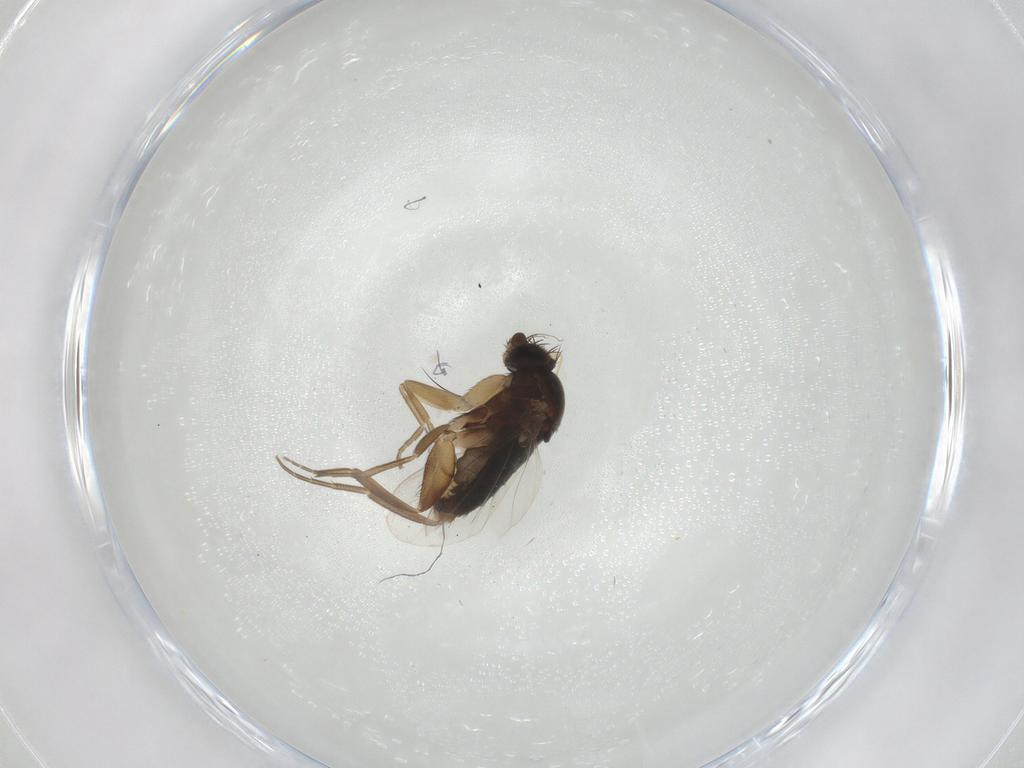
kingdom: Animalia
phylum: Arthropoda
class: Insecta
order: Diptera
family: Phoridae
